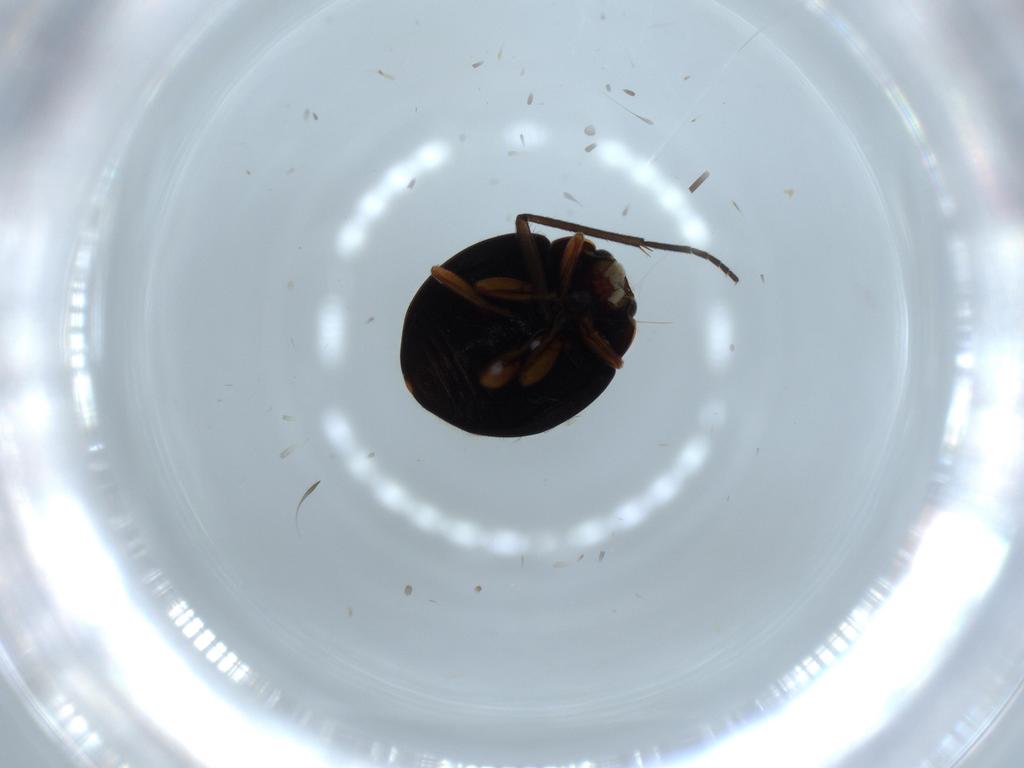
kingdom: Animalia
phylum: Arthropoda
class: Insecta
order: Coleoptera
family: Coccinellidae
